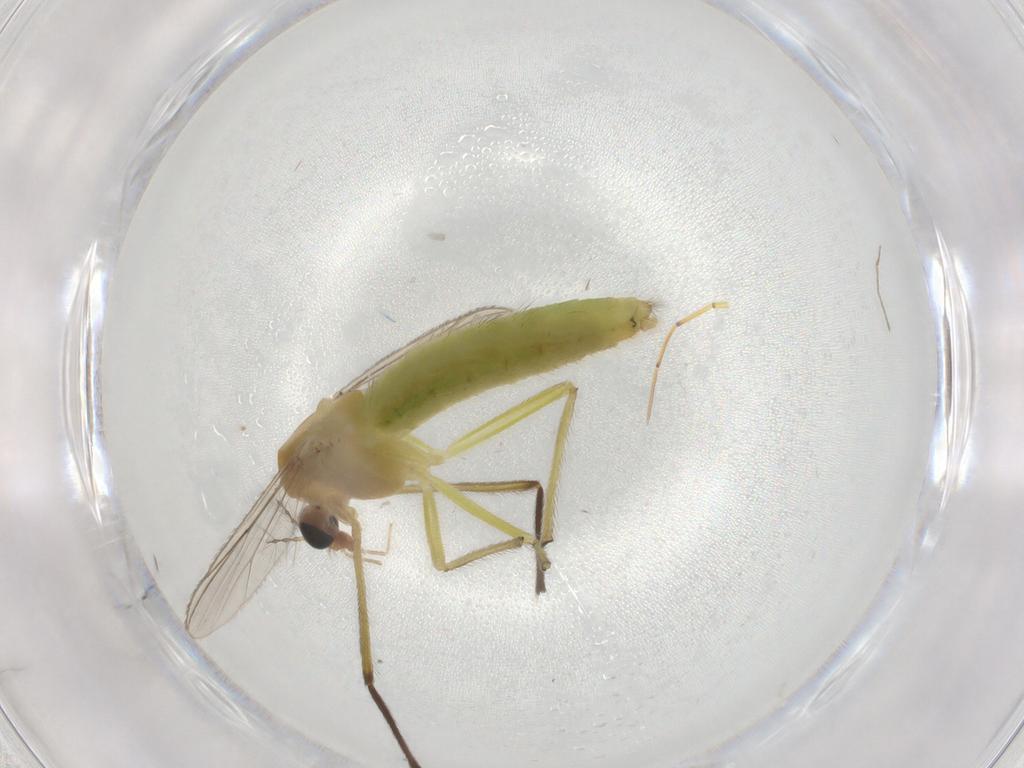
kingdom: Animalia
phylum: Arthropoda
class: Insecta
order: Diptera
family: Chironomidae
